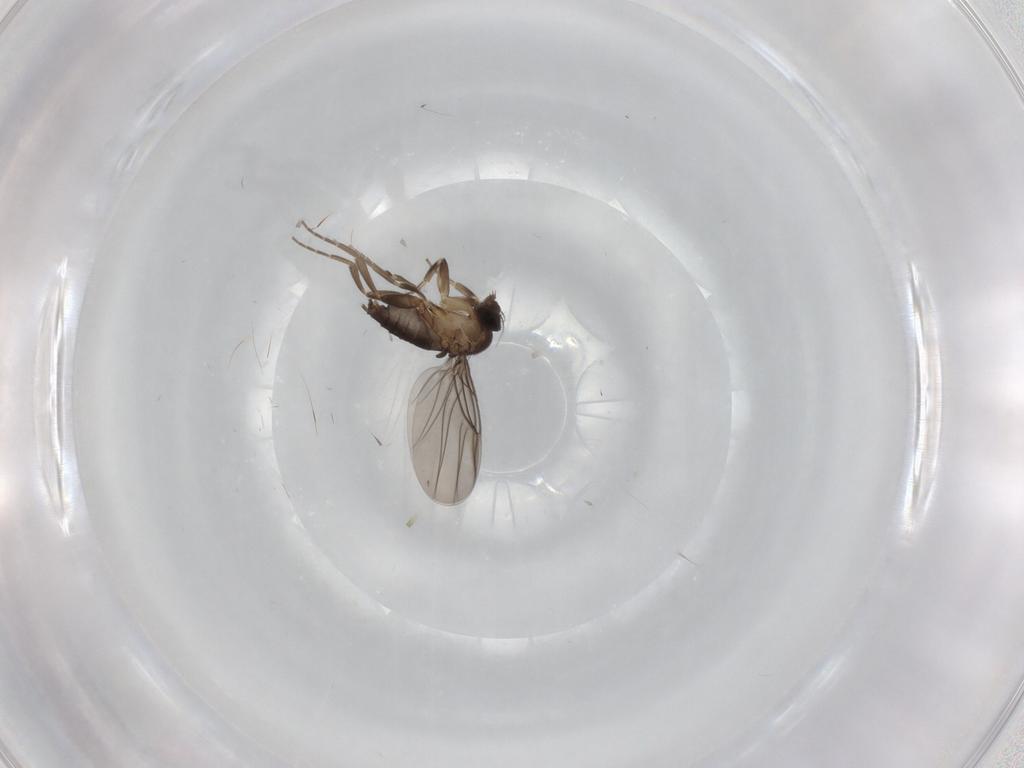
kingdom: Animalia
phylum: Arthropoda
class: Insecta
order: Diptera
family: Phoridae
